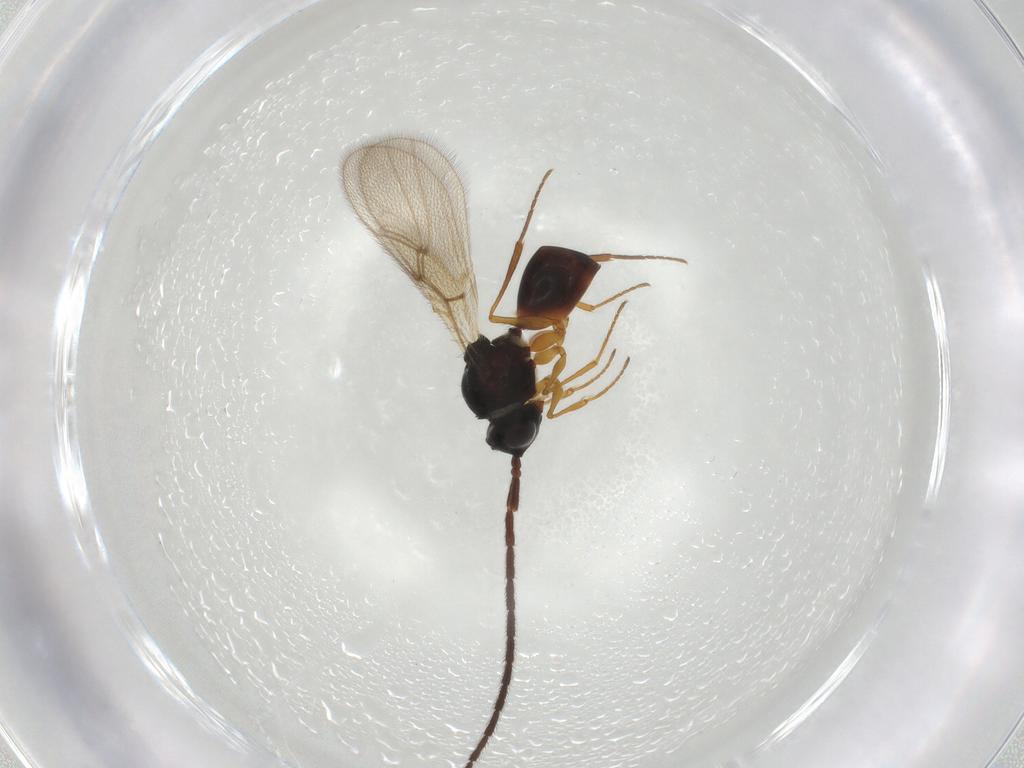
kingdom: Animalia
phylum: Arthropoda
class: Insecta
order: Hymenoptera
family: Figitidae
